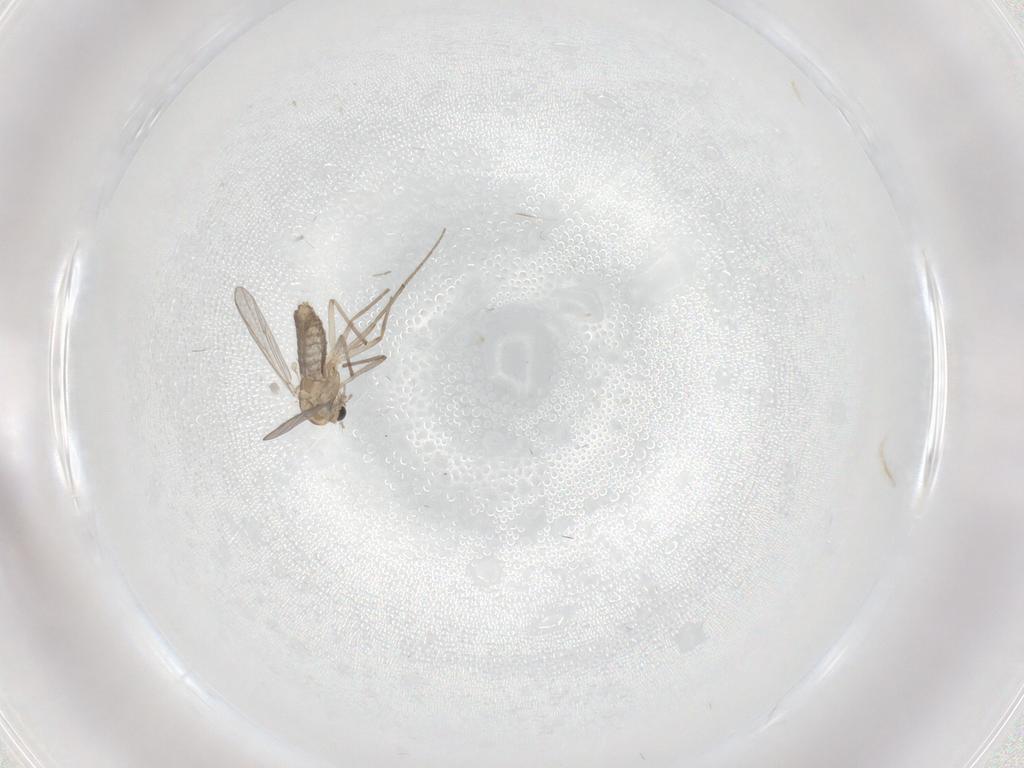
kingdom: Animalia
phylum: Arthropoda
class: Insecta
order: Diptera
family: Chironomidae
